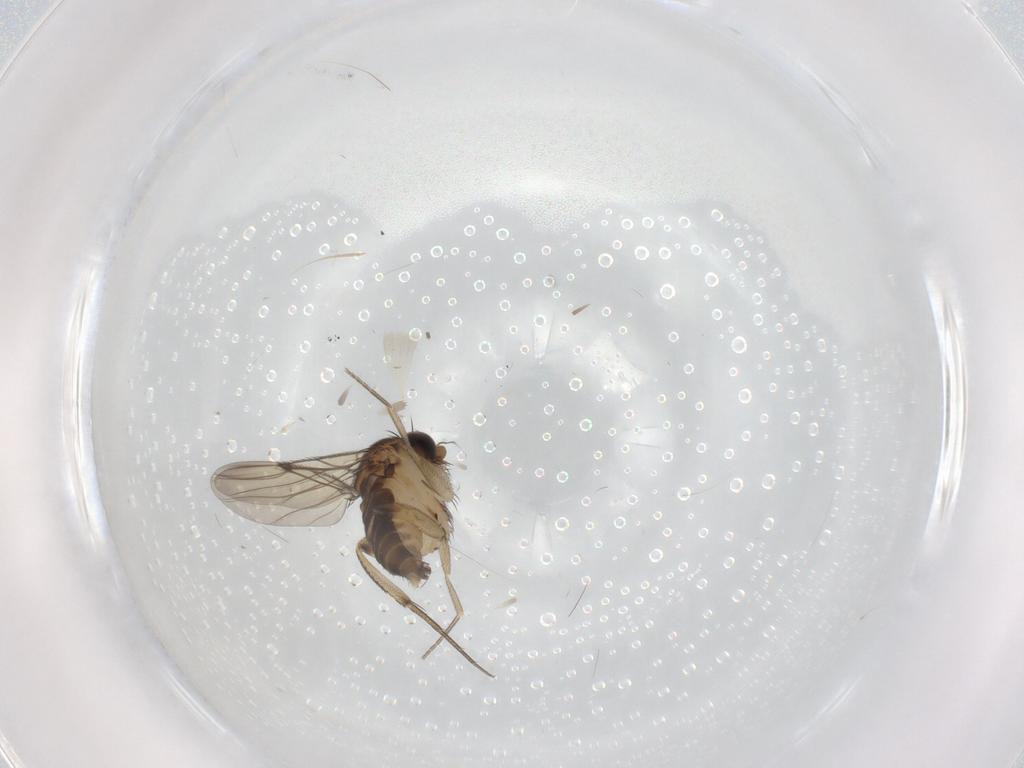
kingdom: Animalia
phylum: Arthropoda
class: Insecta
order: Diptera
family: Phoridae
